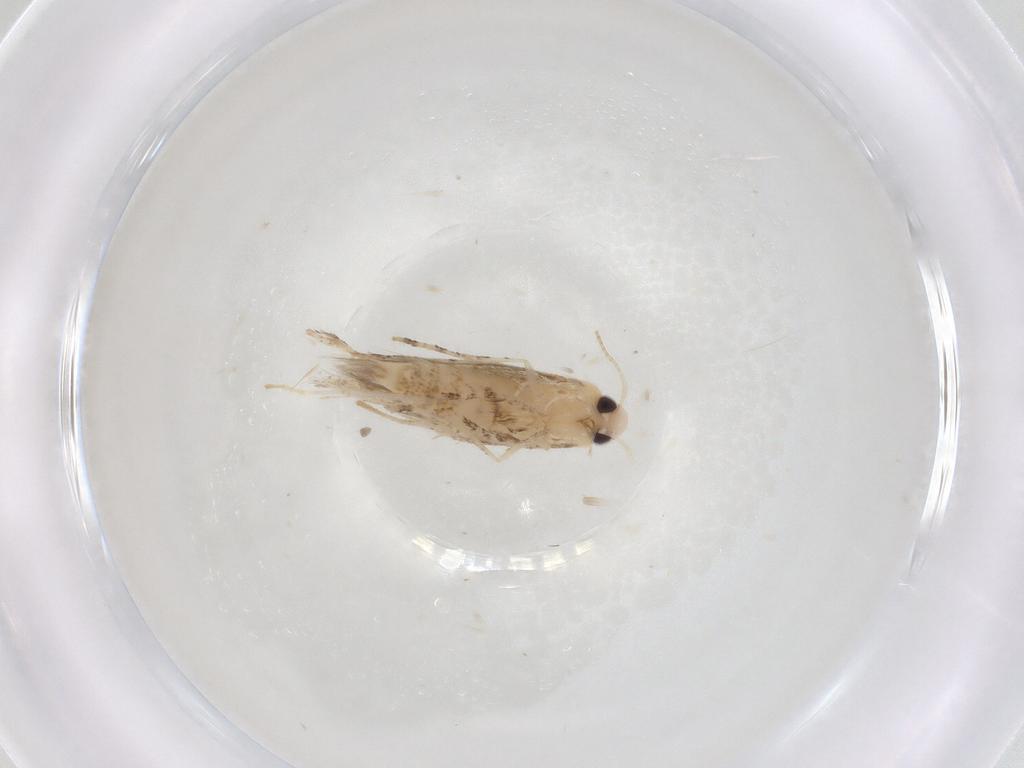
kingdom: Animalia
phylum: Arthropoda
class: Insecta
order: Lepidoptera
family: Gracillariidae
